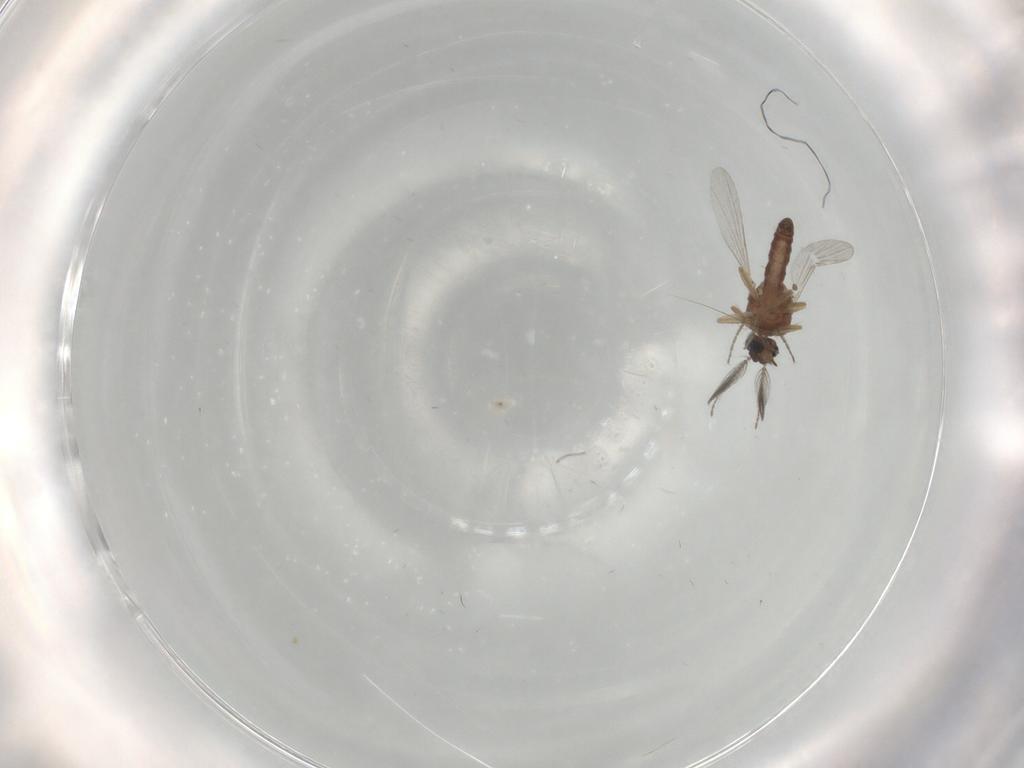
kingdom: Animalia
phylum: Arthropoda
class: Insecta
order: Diptera
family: Ceratopogonidae
